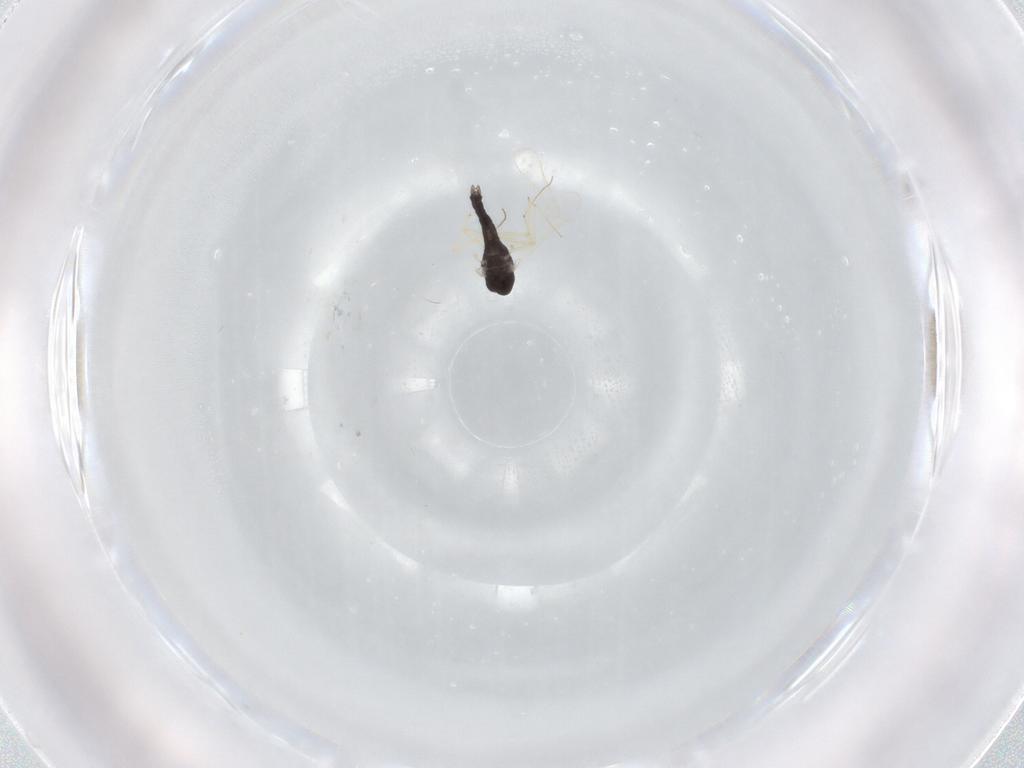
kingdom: Animalia
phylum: Arthropoda
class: Insecta
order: Diptera
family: Chironomidae
